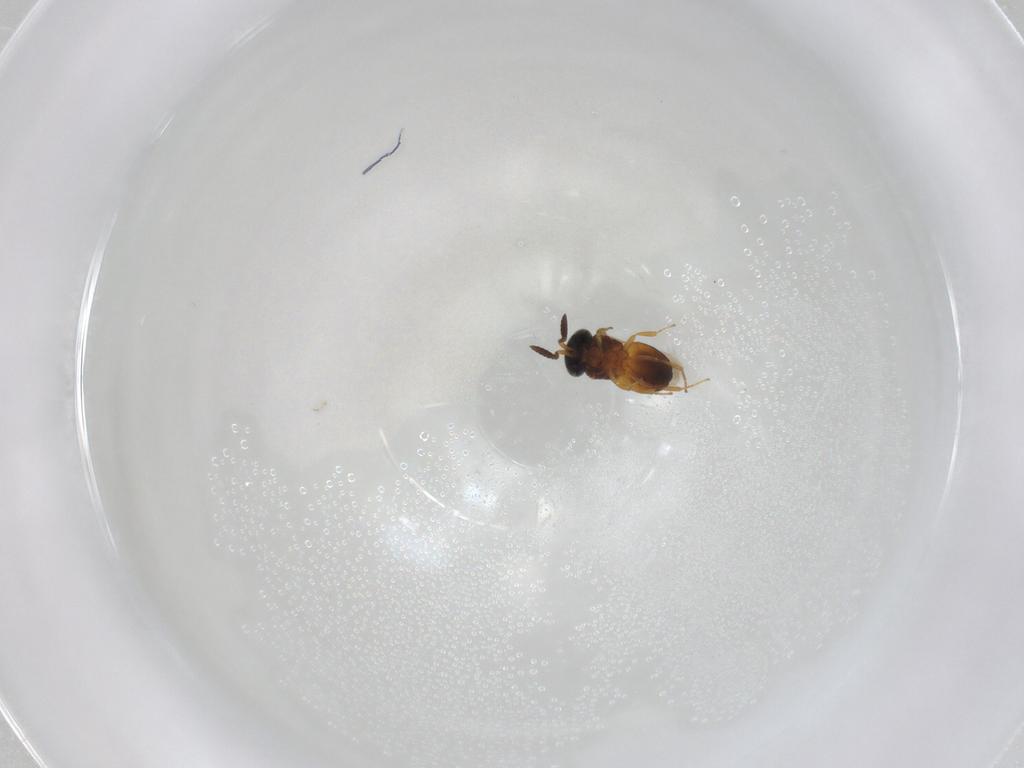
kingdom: Animalia
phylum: Arthropoda
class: Insecta
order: Hymenoptera
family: Scelionidae
